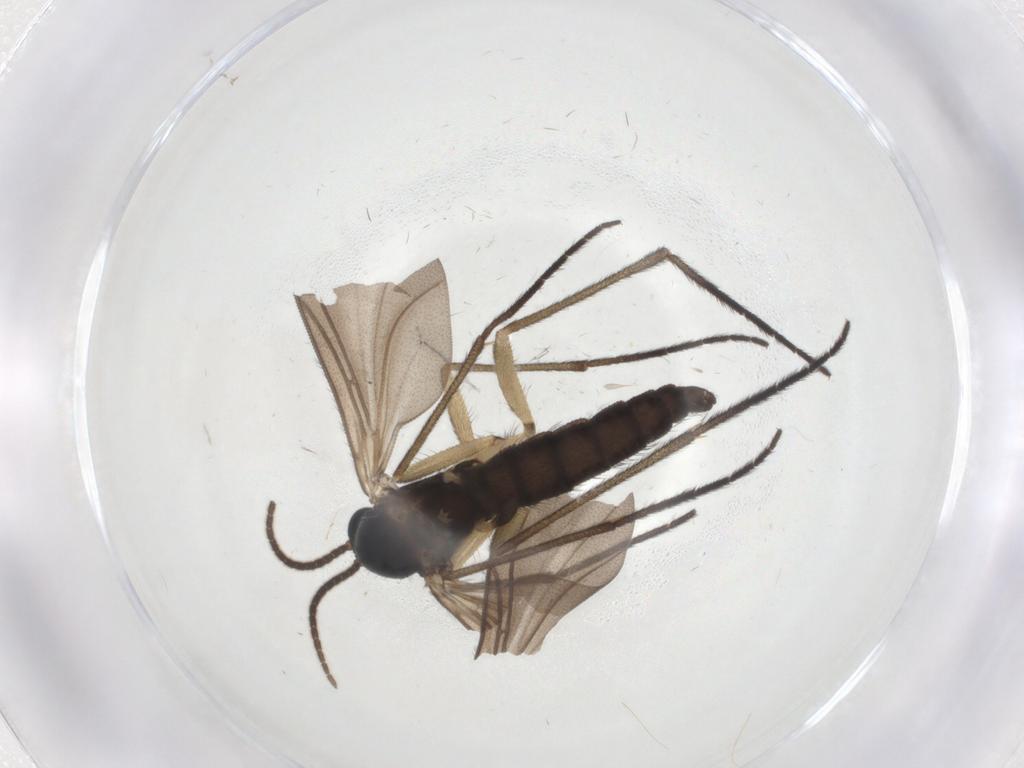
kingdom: Animalia
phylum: Arthropoda
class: Insecta
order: Diptera
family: Sciaridae
